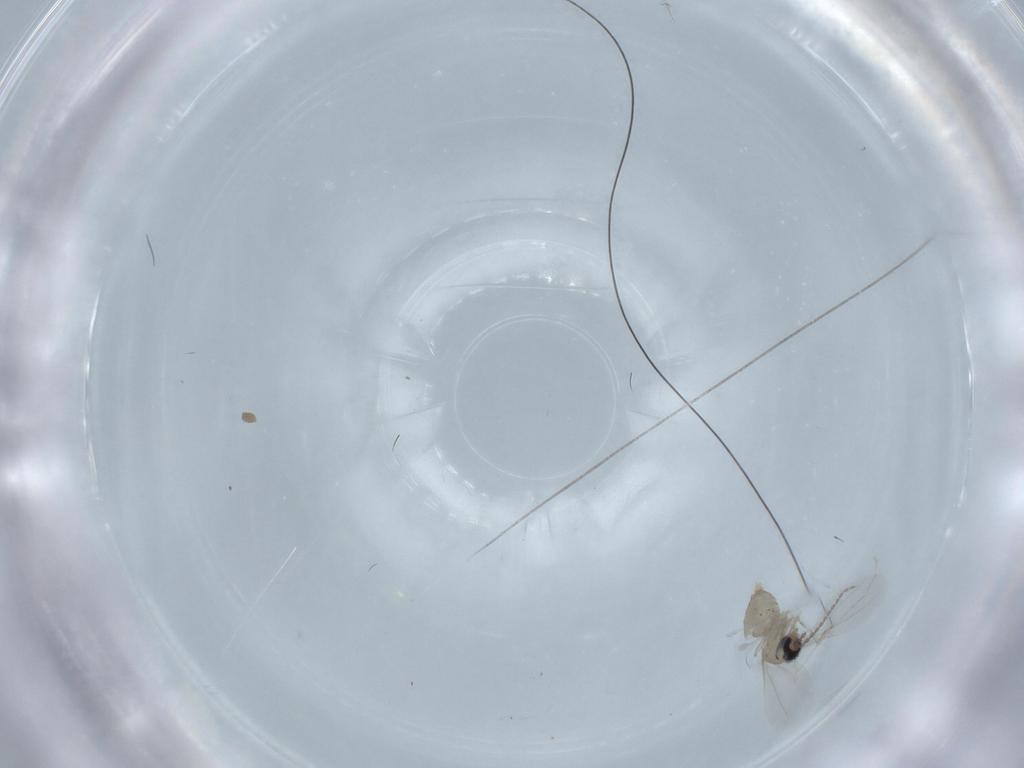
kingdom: Animalia
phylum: Arthropoda
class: Insecta
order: Diptera
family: Cecidomyiidae
